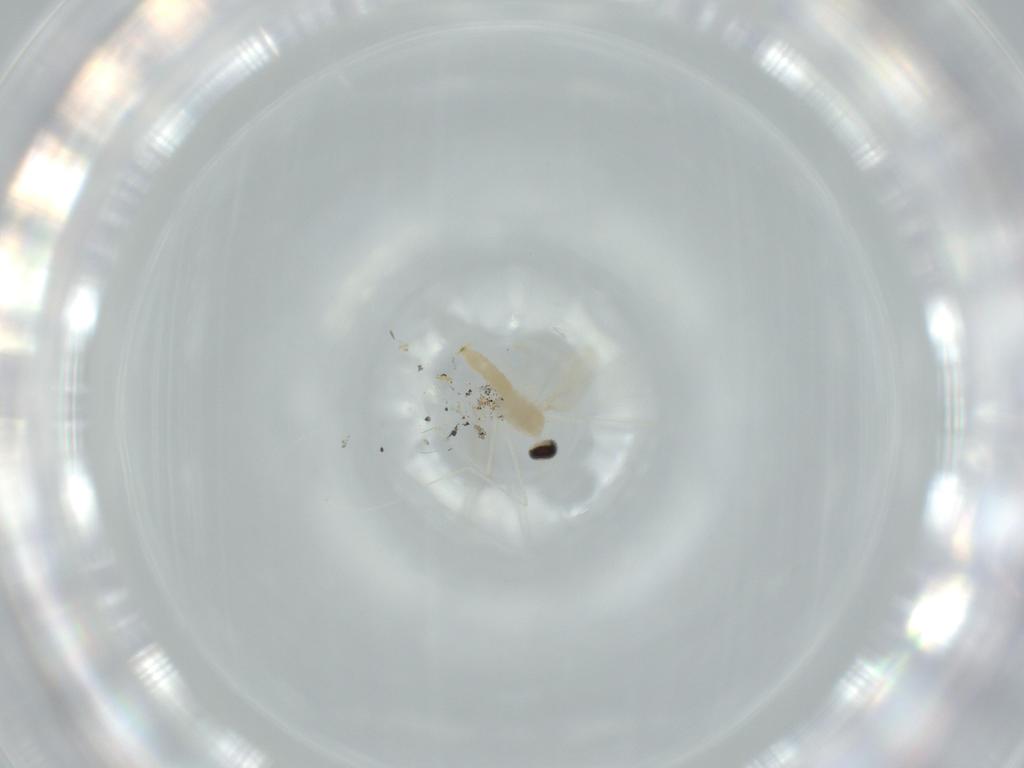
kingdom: Animalia
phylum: Arthropoda
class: Insecta
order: Diptera
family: Cecidomyiidae
